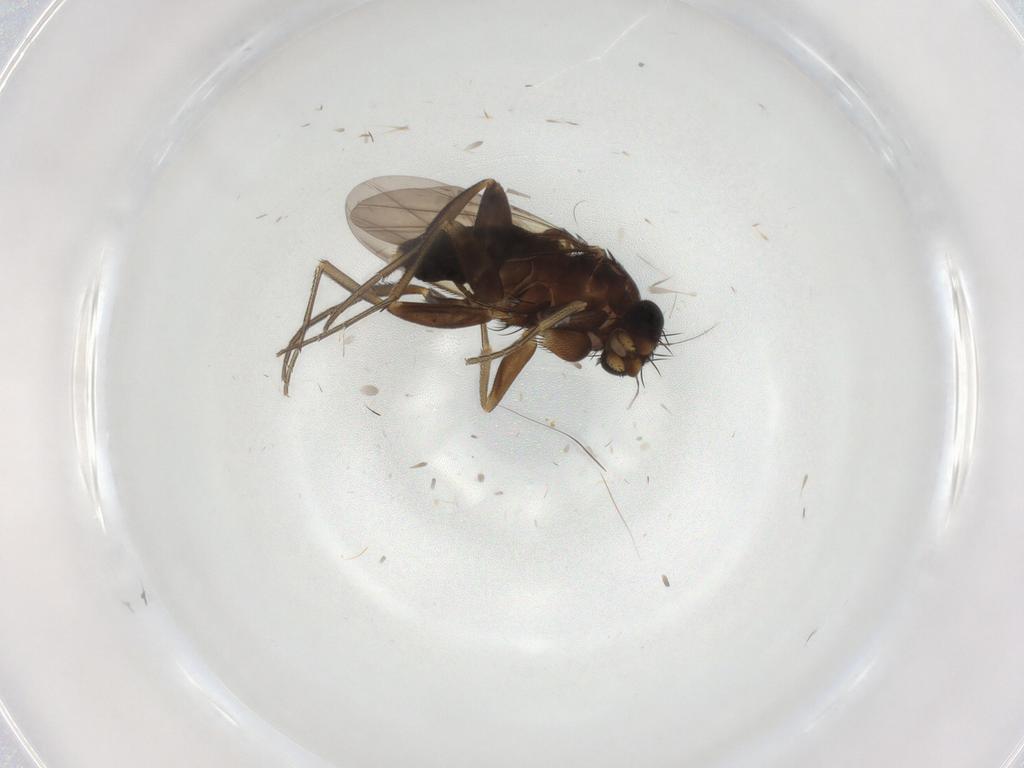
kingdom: Animalia
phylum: Arthropoda
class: Insecta
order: Diptera
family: Phoridae
